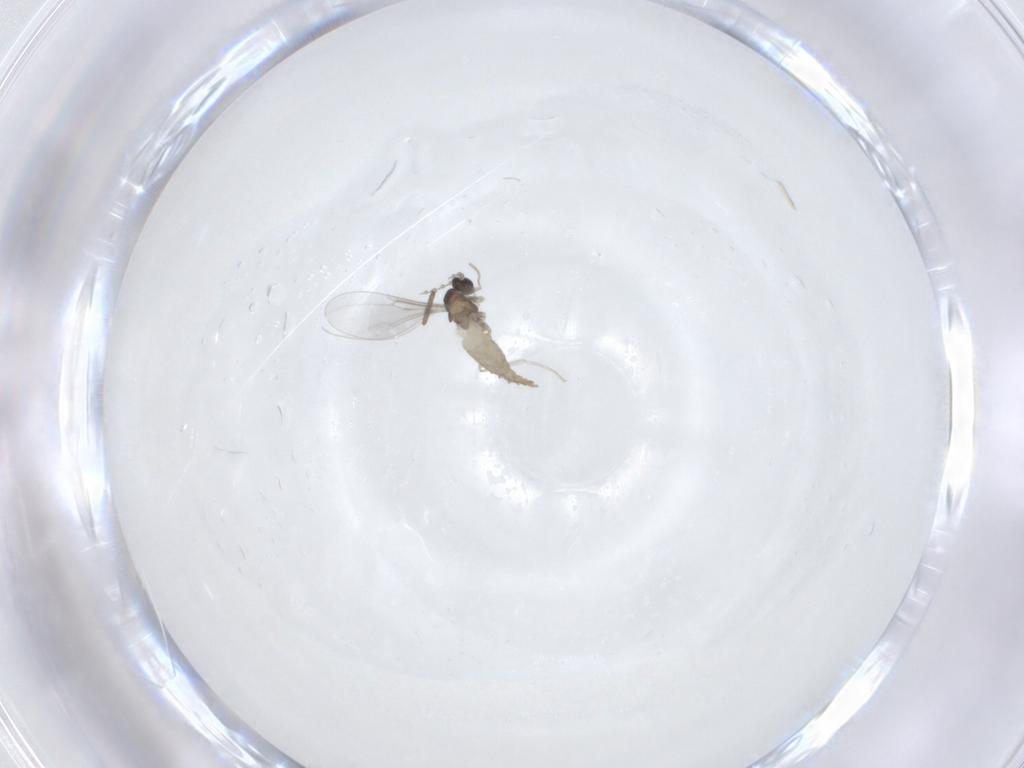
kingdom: Animalia
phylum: Arthropoda
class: Insecta
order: Diptera
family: Cecidomyiidae
